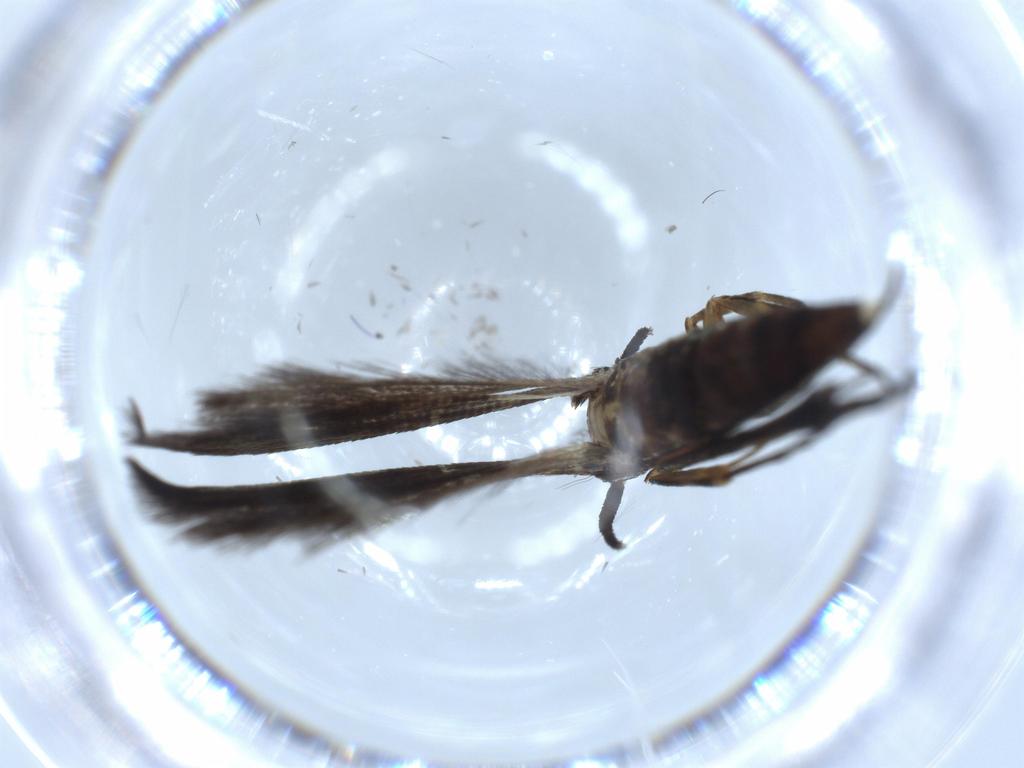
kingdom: Animalia
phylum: Arthropoda
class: Insecta
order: Lepidoptera
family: Heliodinidae
